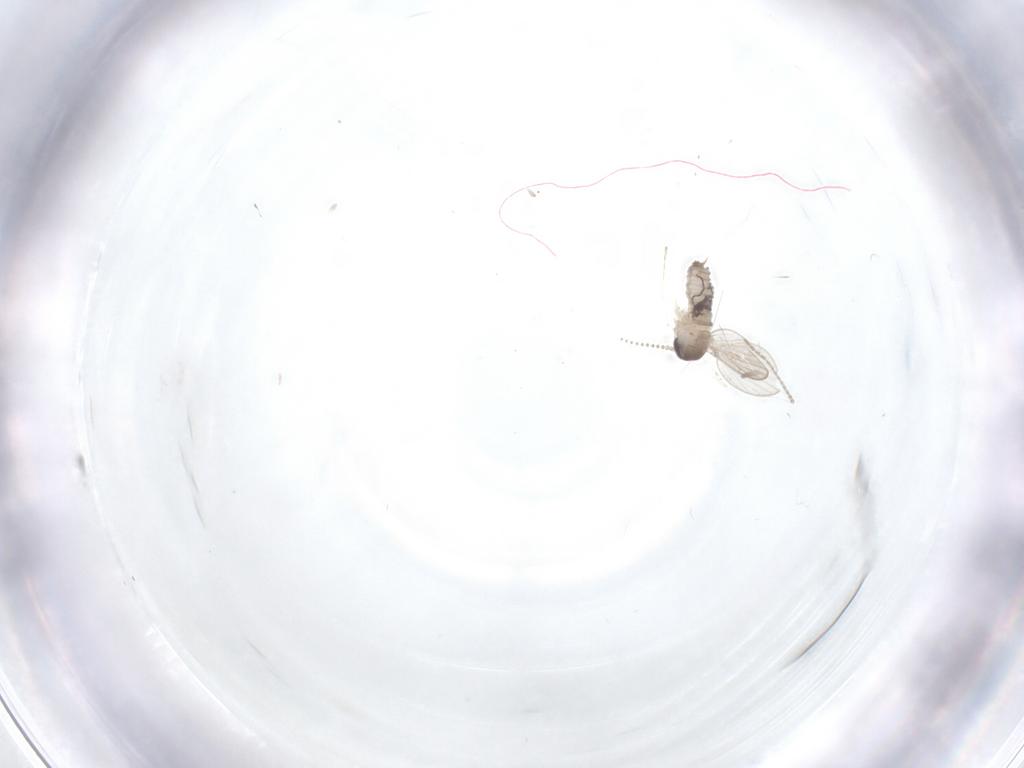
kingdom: Animalia
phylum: Arthropoda
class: Insecta
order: Diptera
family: Ceratopogonidae
